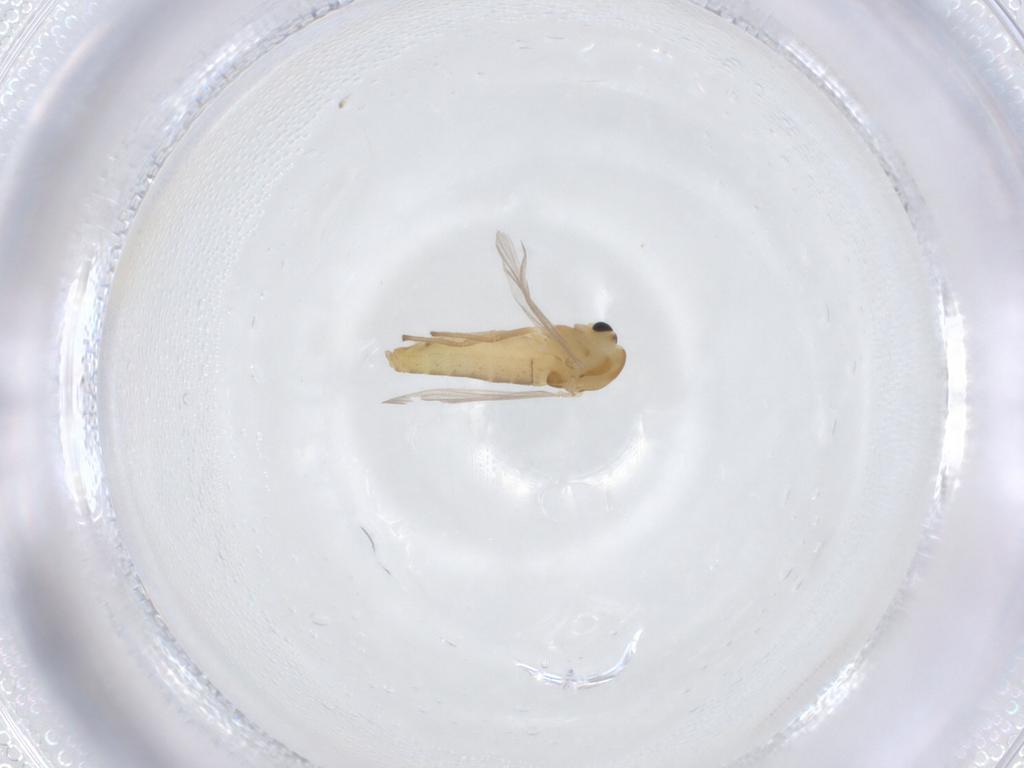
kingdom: Animalia
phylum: Arthropoda
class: Insecta
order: Diptera
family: Chironomidae
